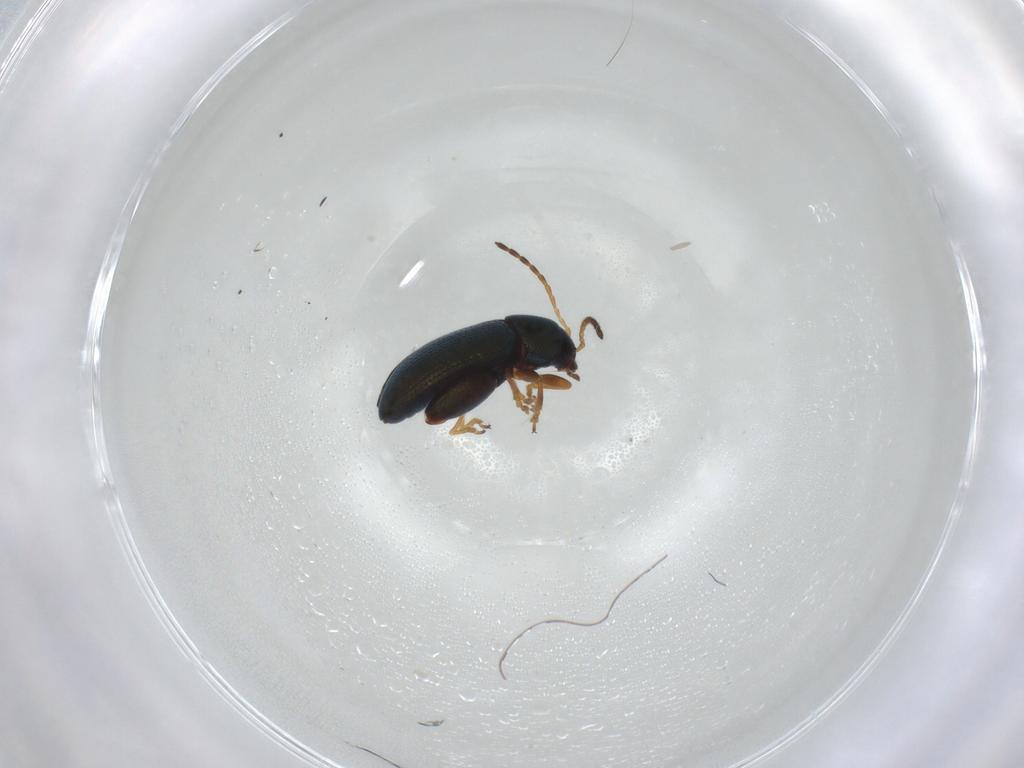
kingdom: Animalia
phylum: Arthropoda
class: Insecta
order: Coleoptera
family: Chrysomelidae
